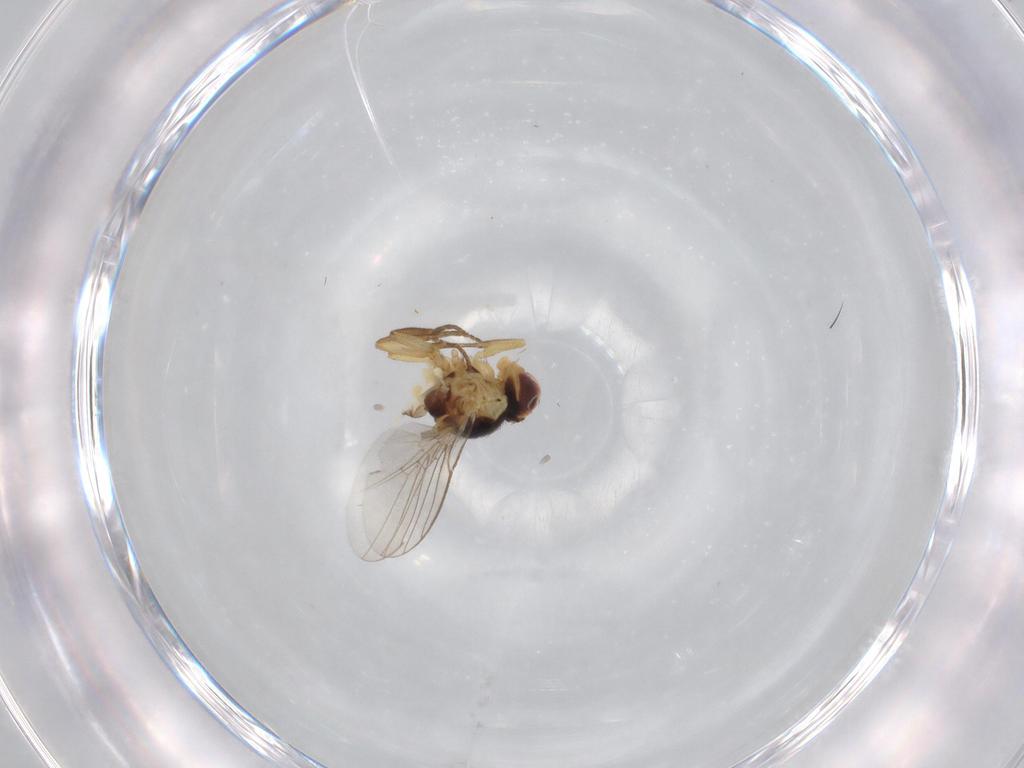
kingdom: Animalia
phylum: Arthropoda
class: Insecta
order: Diptera
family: Agromyzidae
